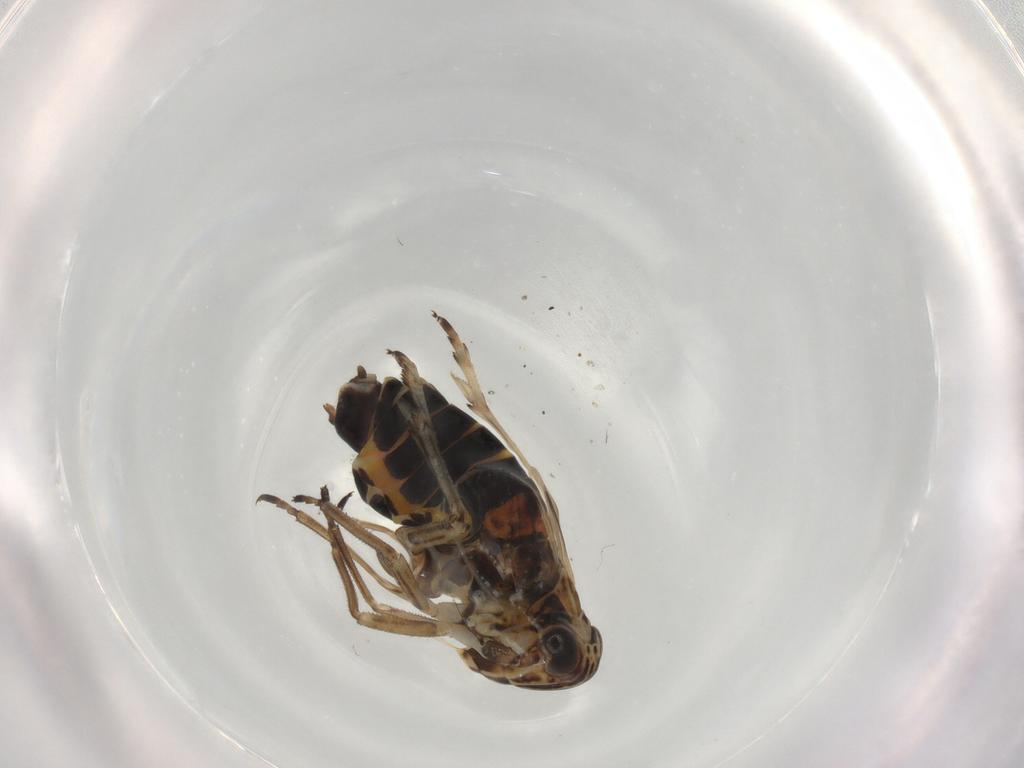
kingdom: Animalia
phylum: Arthropoda
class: Insecta
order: Hemiptera
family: Delphacidae
